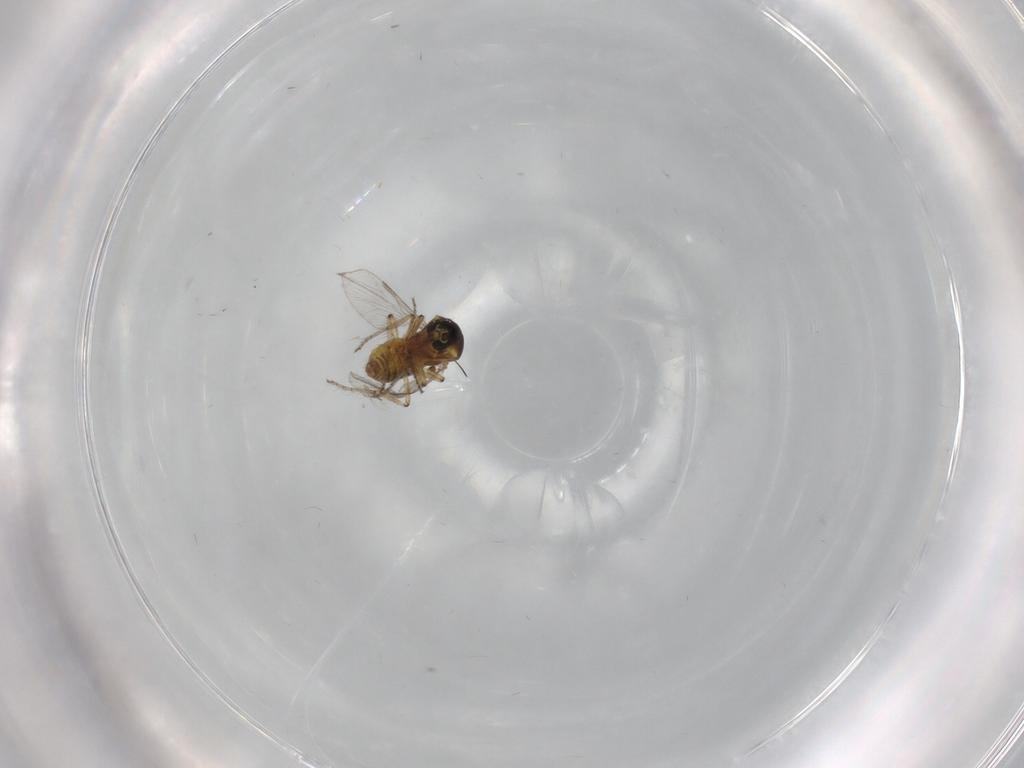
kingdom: Animalia
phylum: Arthropoda
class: Insecta
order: Diptera
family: Ceratopogonidae
